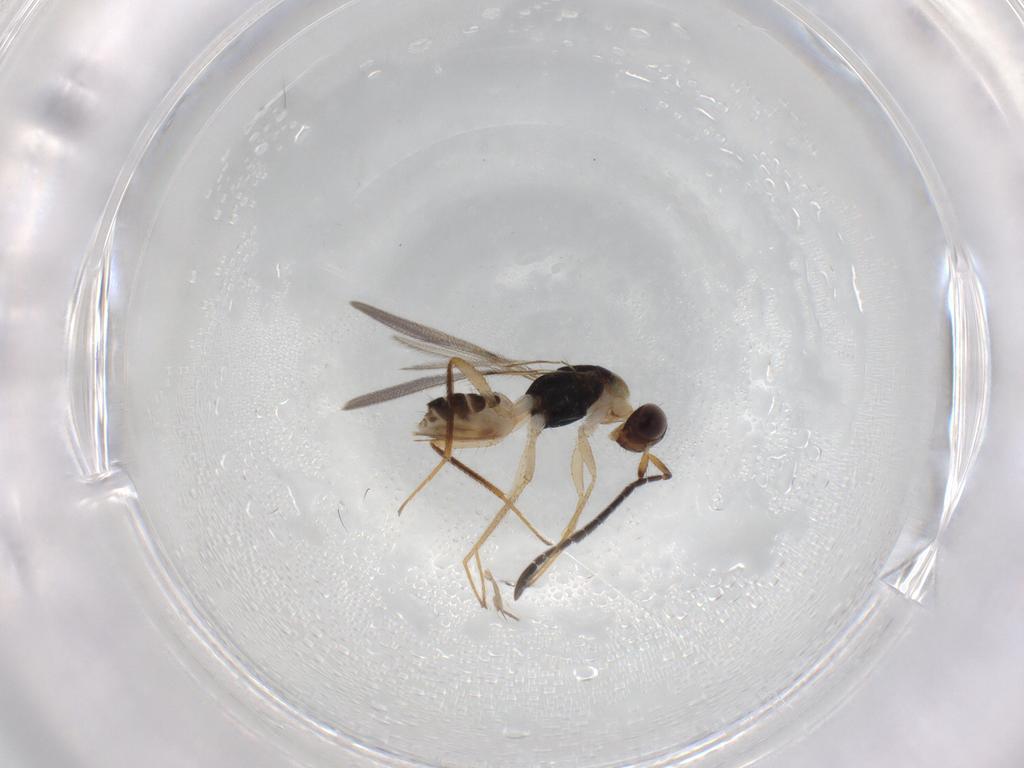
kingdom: Animalia
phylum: Arthropoda
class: Insecta
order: Hymenoptera
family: Mymaridae
